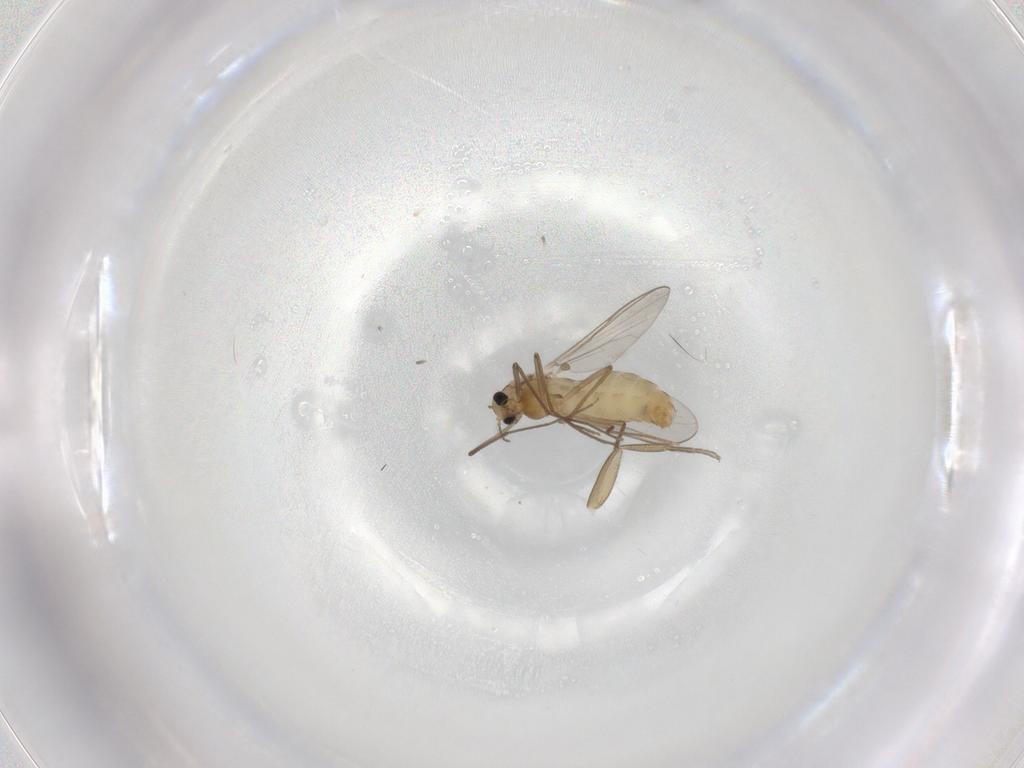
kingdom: Animalia
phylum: Arthropoda
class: Insecta
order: Diptera
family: Chironomidae
